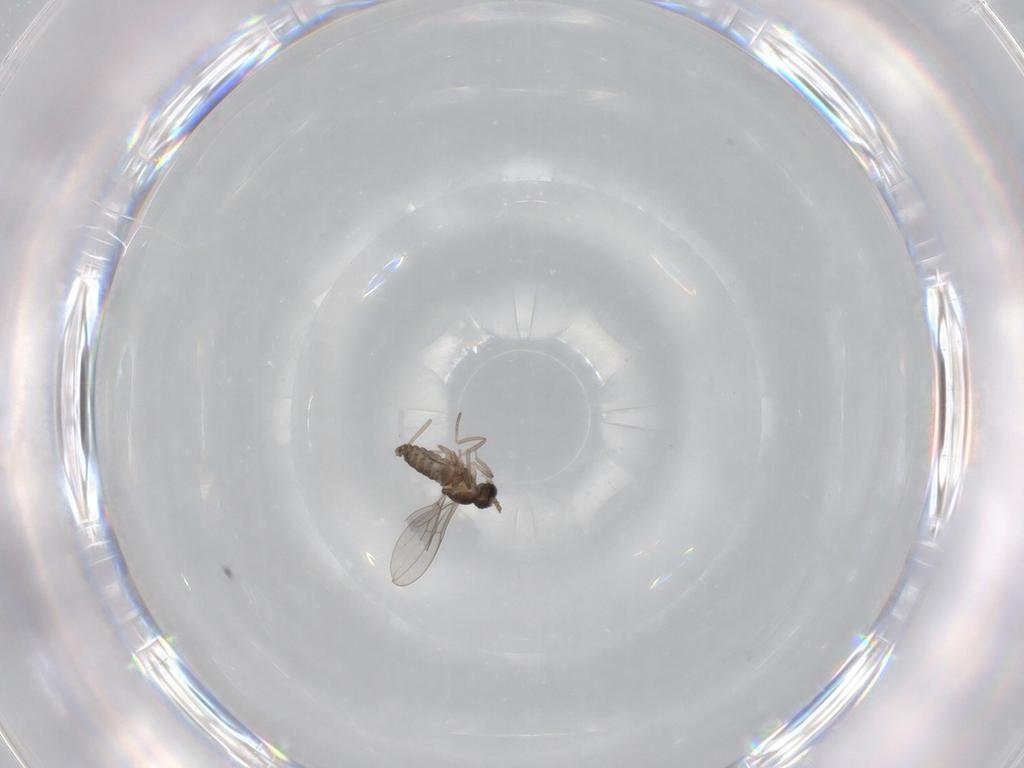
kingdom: Animalia
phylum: Arthropoda
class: Insecta
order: Diptera
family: Cecidomyiidae
